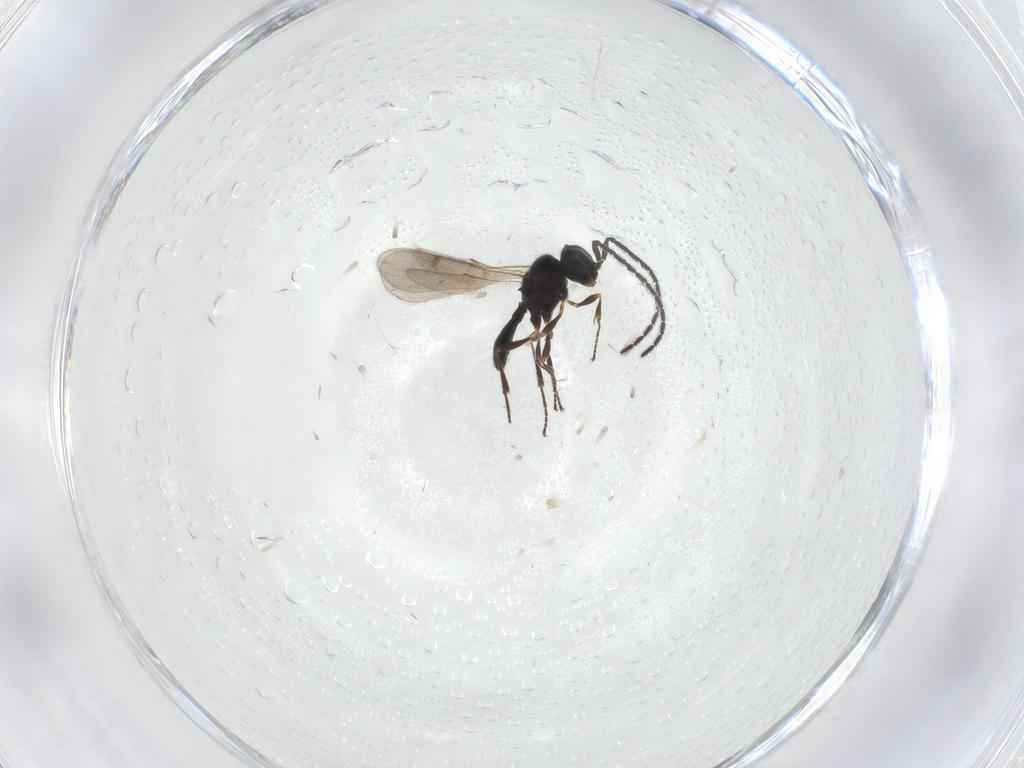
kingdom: Animalia
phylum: Arthropoda
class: Insecta
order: Hymenoptera
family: Scelionidae
